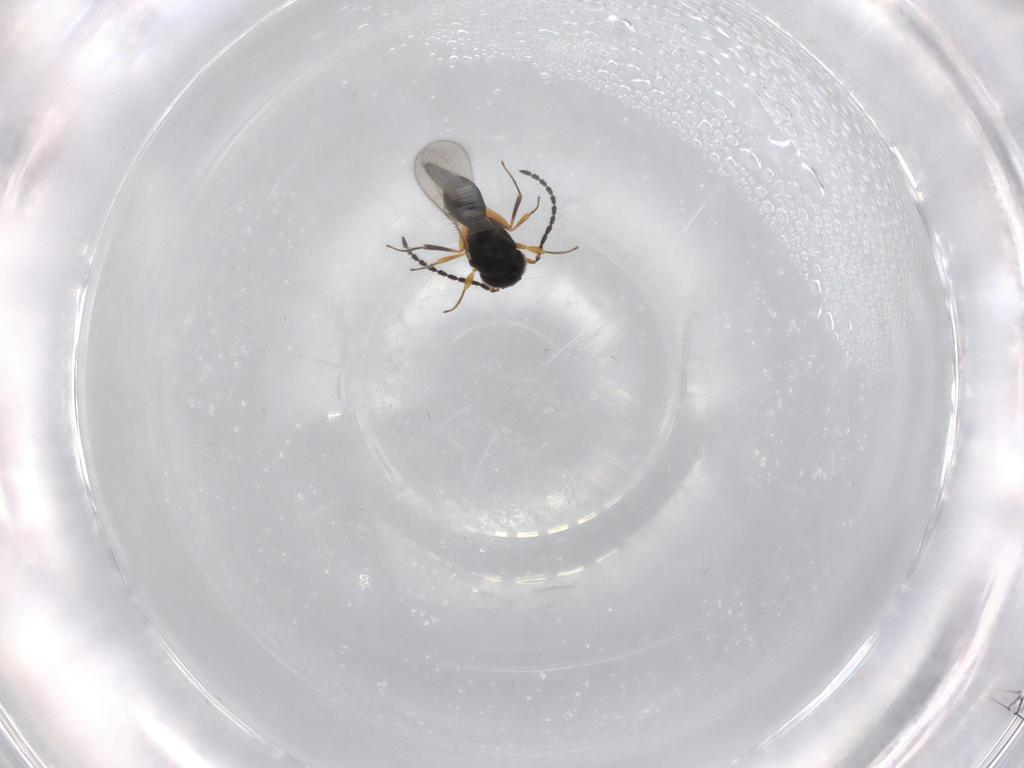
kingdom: Animalia
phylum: Arthropoda
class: Insecta
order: Hymenoptera
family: Scelionidae
